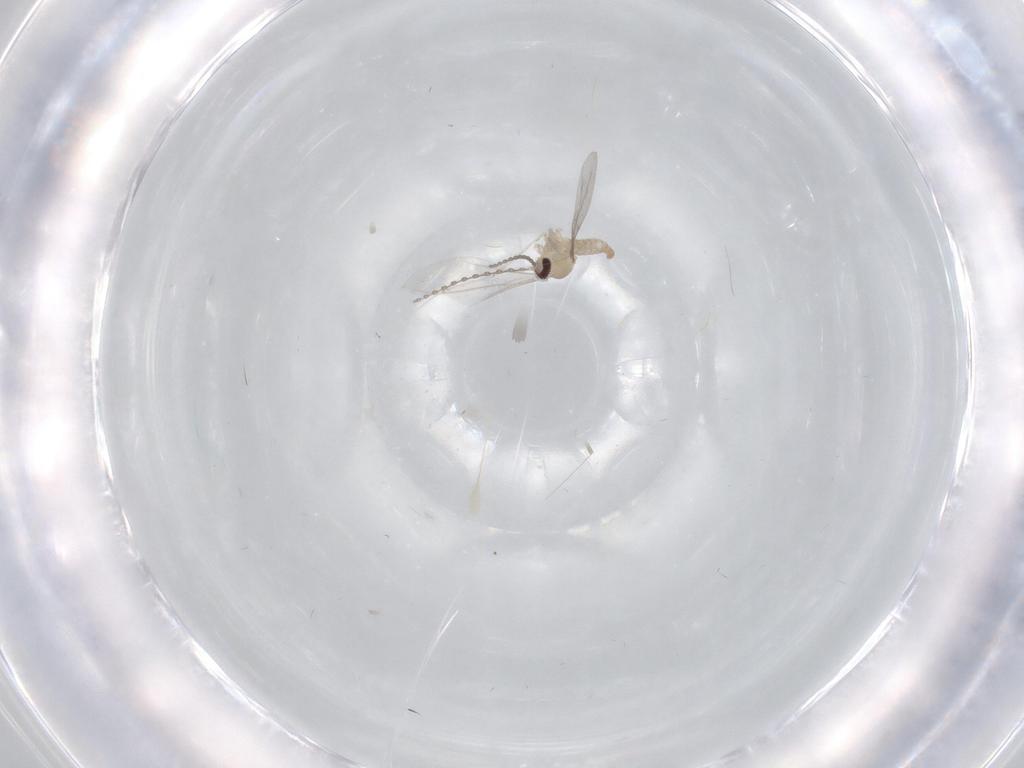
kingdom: Animalia
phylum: Arthropoda
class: Insecta
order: Diptera
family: Cecidomyiidae
